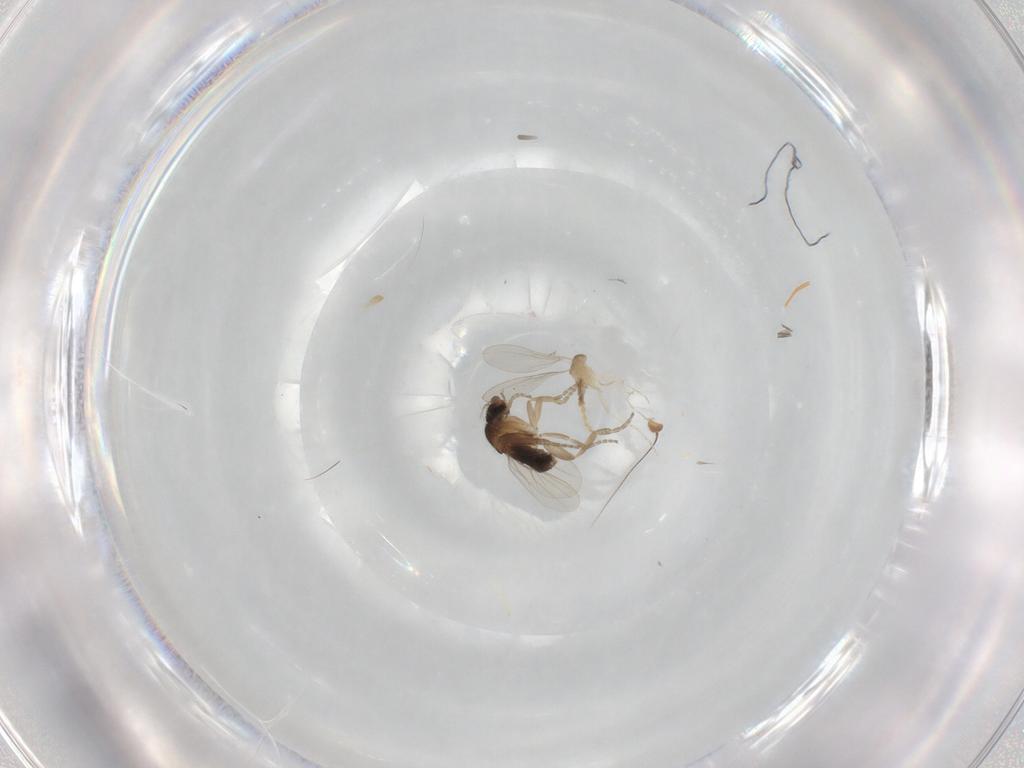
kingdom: Animalia
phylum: Arthropoda
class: Insecta
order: Diptera
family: Cecidomyiidae
